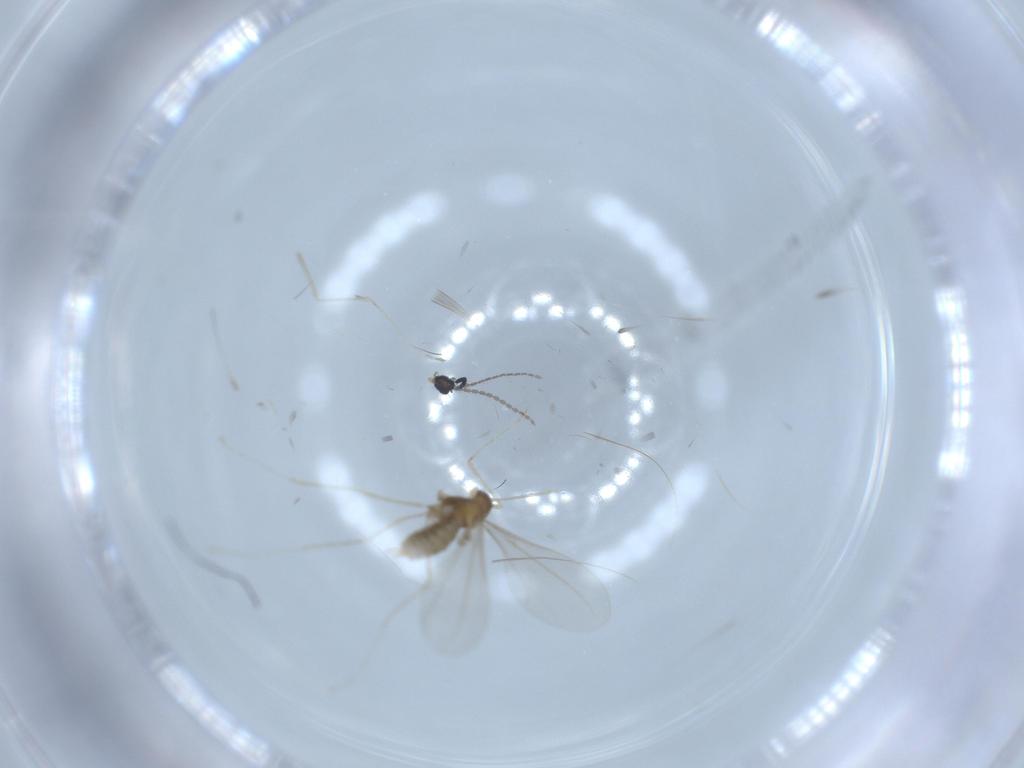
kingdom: Animalia
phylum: Arthropoda
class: Insecta
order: Diptera
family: Cecidomyiidae
